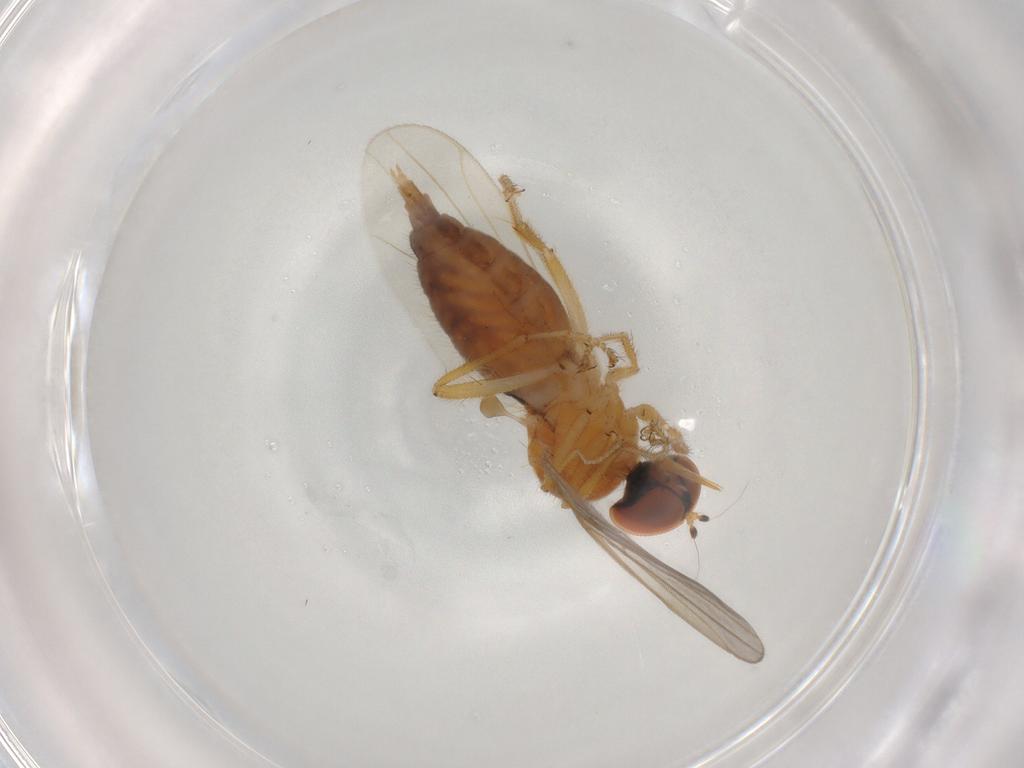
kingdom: Animalia
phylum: Arthropoda
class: Insecta
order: Diptera
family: Hybotidae
